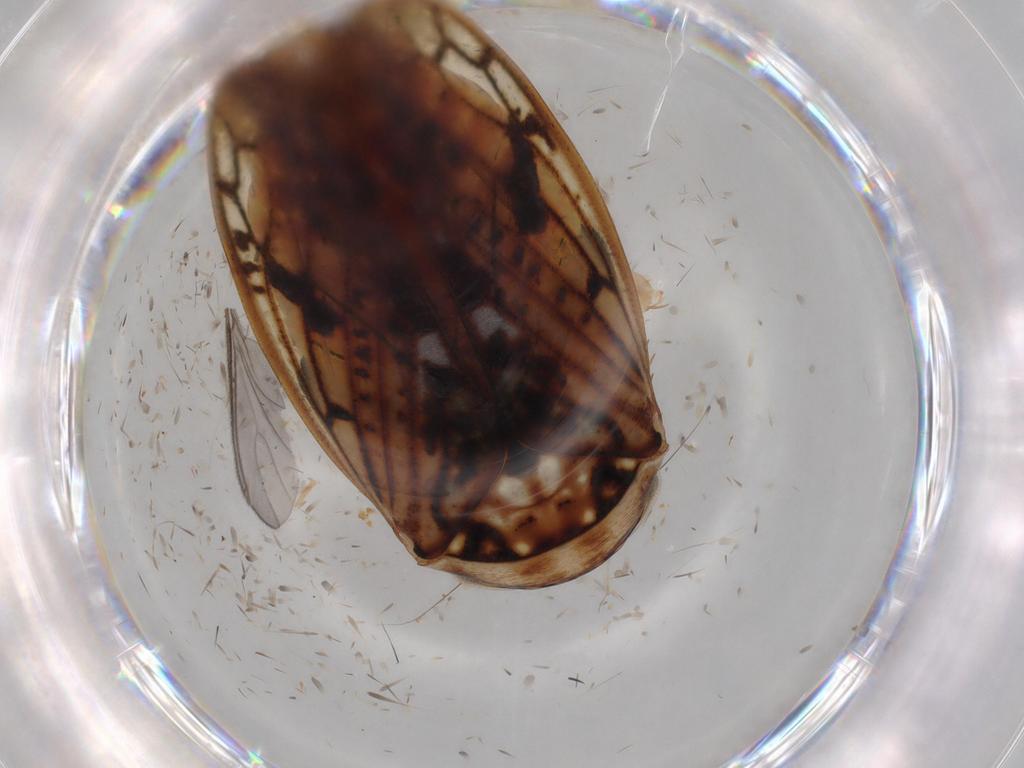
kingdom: Animalia
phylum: Arthropoda
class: Insecta
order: Hemiptera
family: Cicadellidae
